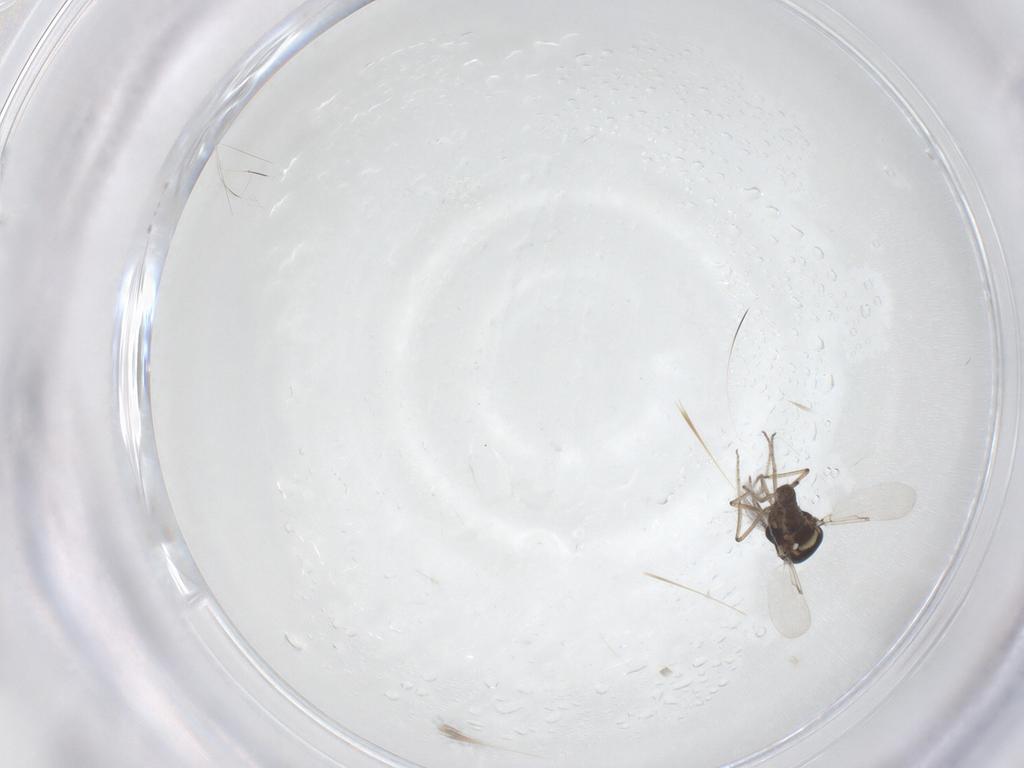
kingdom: Animalia
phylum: Arthropoda
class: Insecta
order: Diptera
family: Ceratopogonidae
